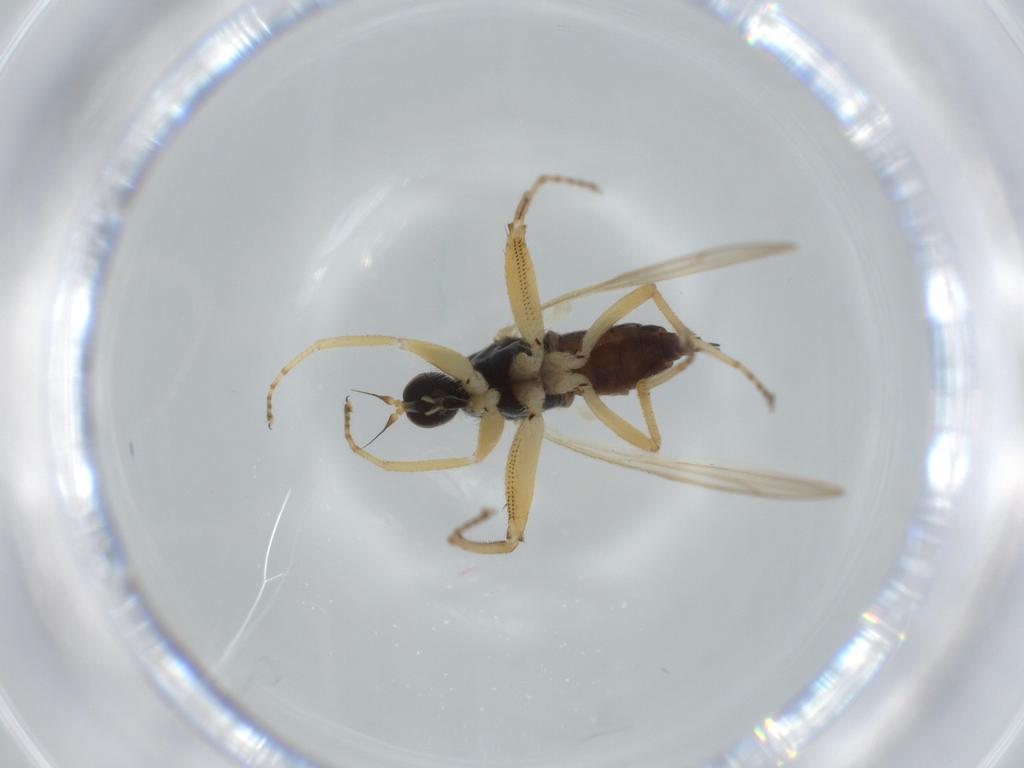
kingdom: Animalia
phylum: Arthropoda
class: Insecta
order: Diptera
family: Hybotidae
